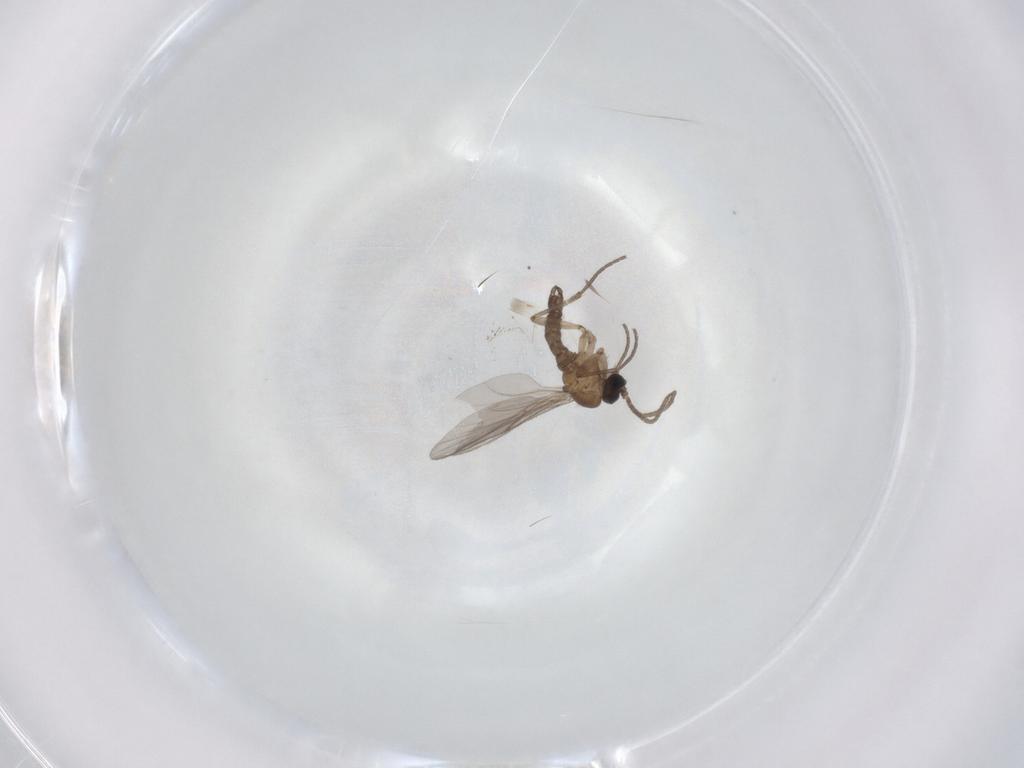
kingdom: Animalia
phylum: Arthropoda
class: Insecta
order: Diptera
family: Sciaridae
